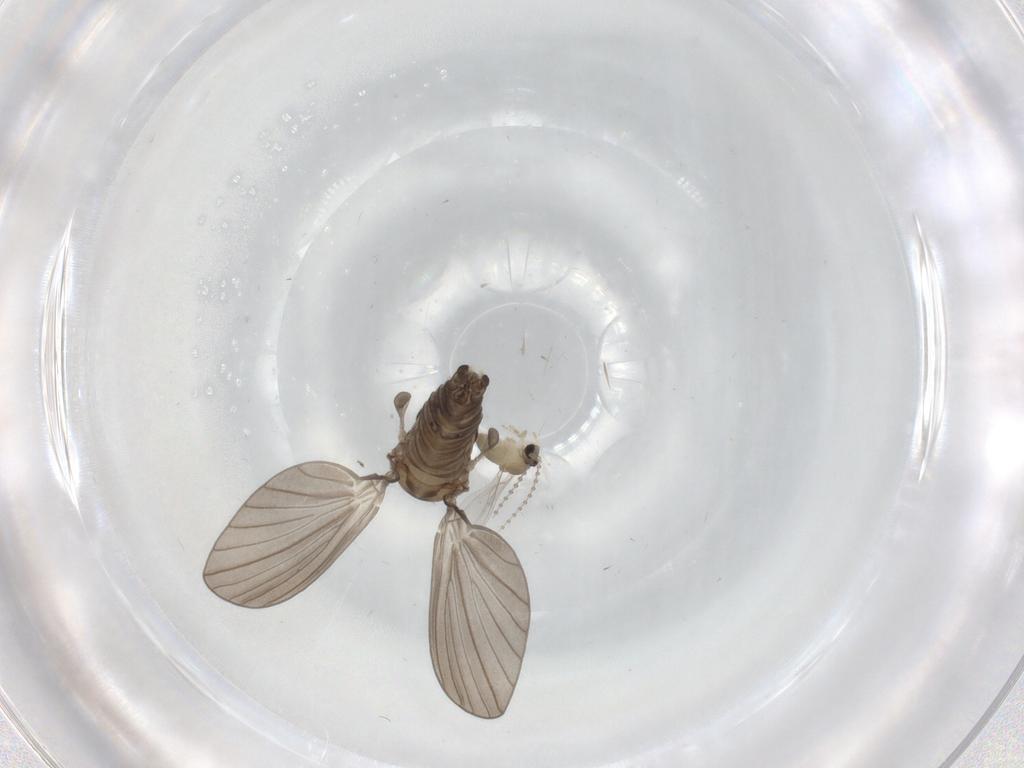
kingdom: Animalia
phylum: Arthropoda
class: Insecta
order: Diptera
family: Psychodidae
